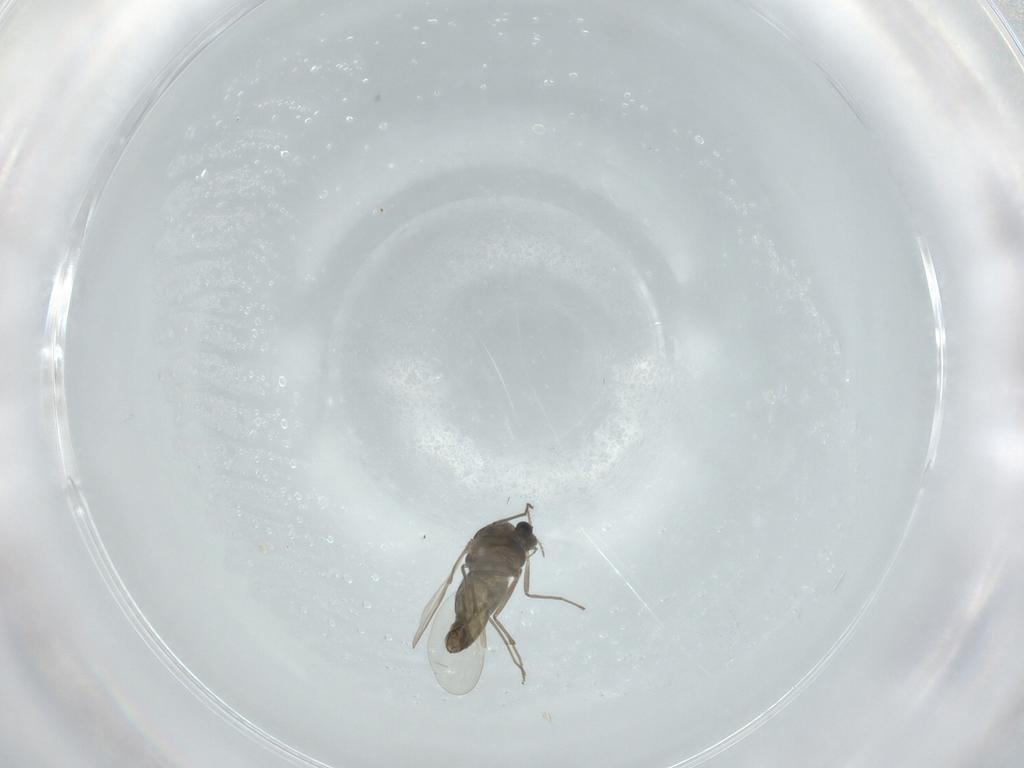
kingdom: Animalia
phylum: Arthropoda
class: Insecta
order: Diptera
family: Chironomidae
